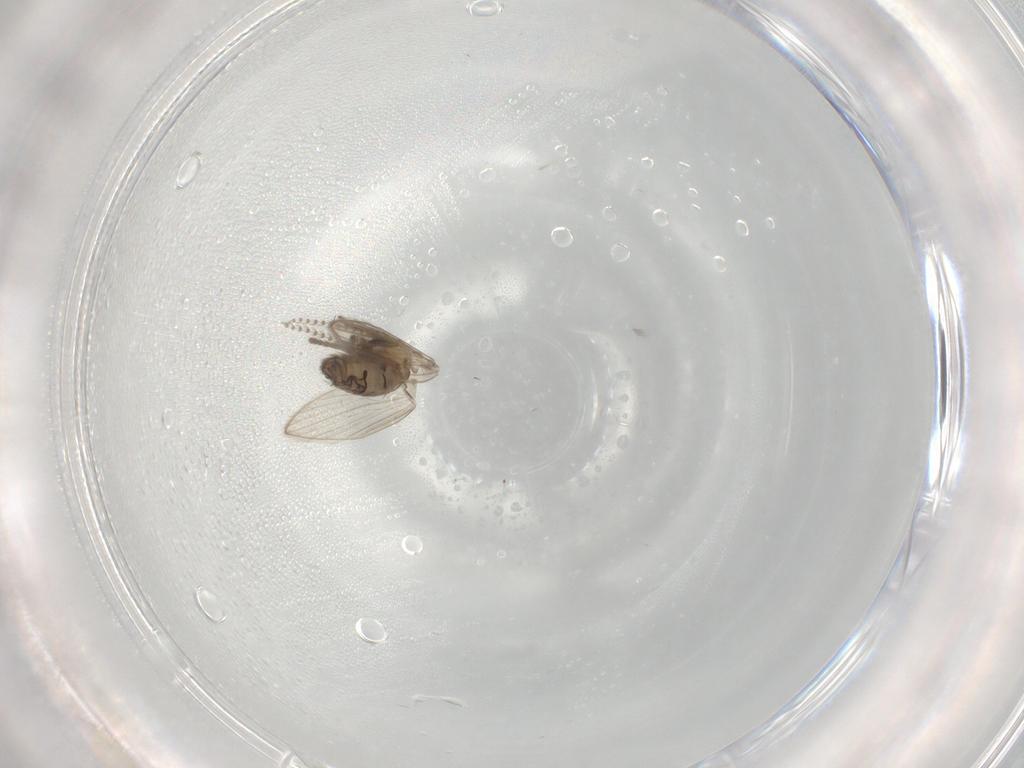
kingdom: Animalia
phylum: Arthropoda
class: Insecta
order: Diptera
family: Psychodidae
